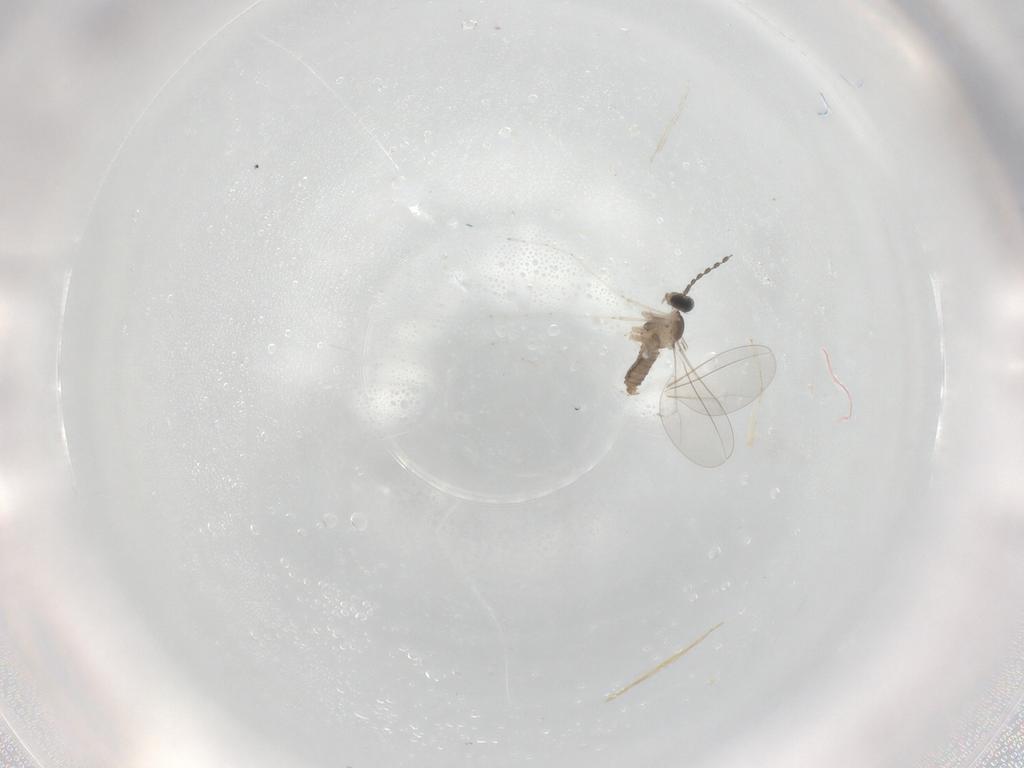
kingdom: Animalia
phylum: Arthropoda
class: Insecta
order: Diptera
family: Cecidomyiidae
